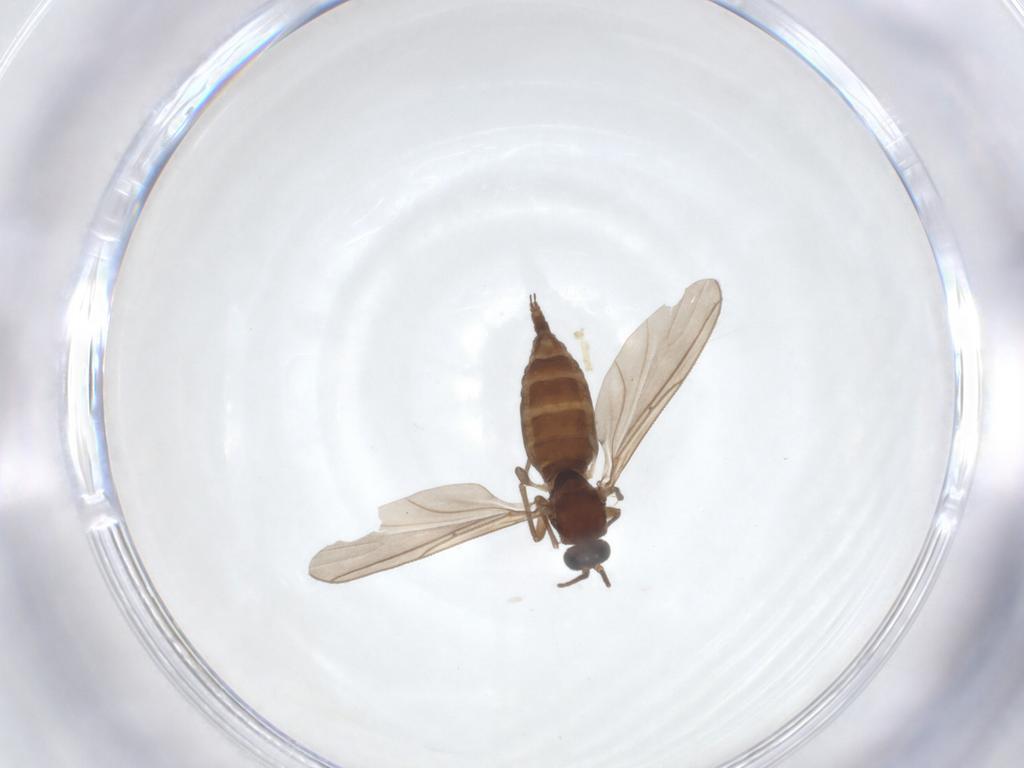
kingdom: Animalia
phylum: Arthropoda
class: Insecta
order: Diptera
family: Sciaridae
